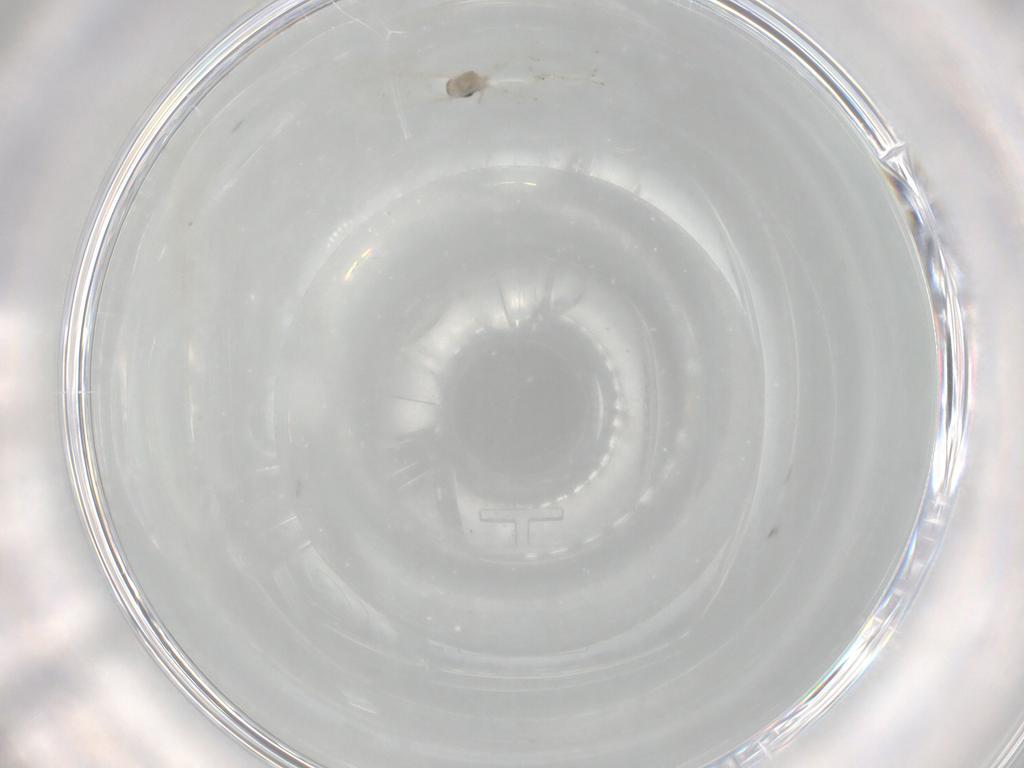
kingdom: Animalia
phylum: Arthropoda
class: Insecta
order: Diptera
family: Cecidomyiidae
